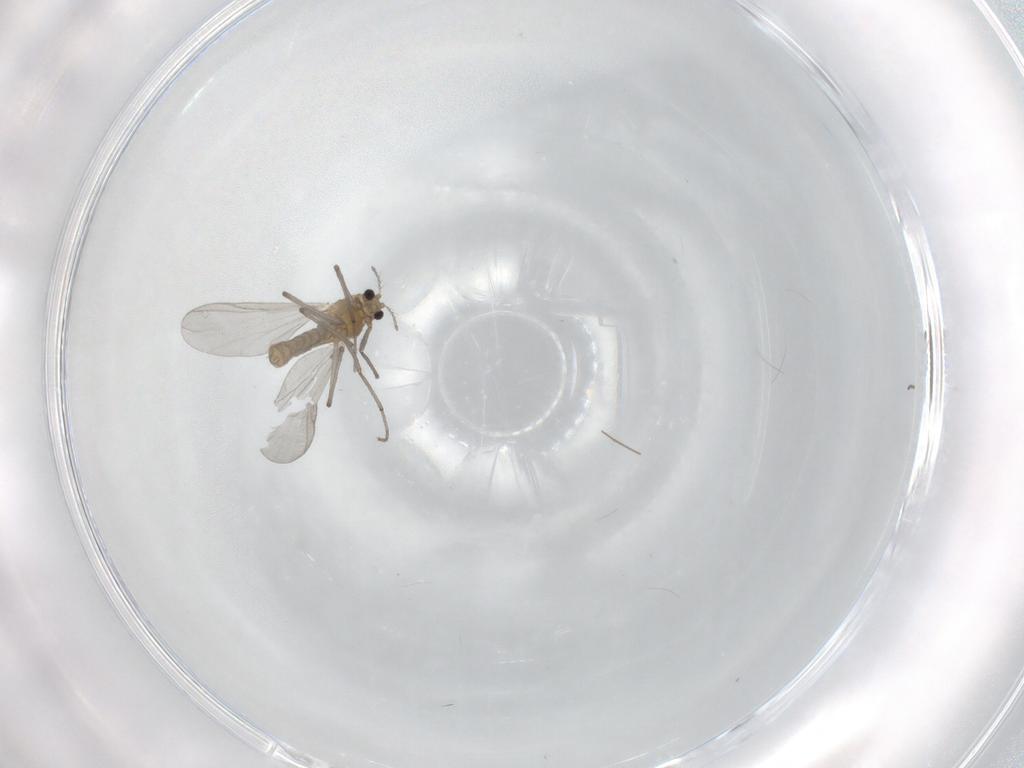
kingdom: Animalia
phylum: Arthropoda
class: Insecta
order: Diptera
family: Chironomidae
